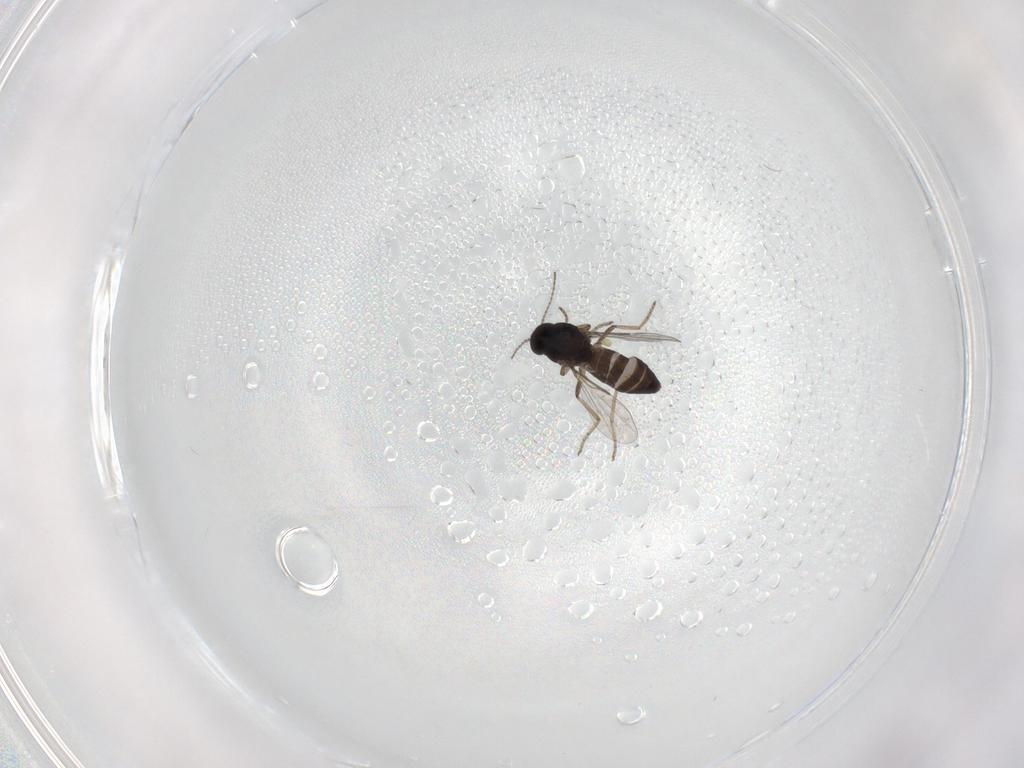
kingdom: Animalia
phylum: Arthropoda
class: Insecta
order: Diptera
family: Ceratopogonidae
